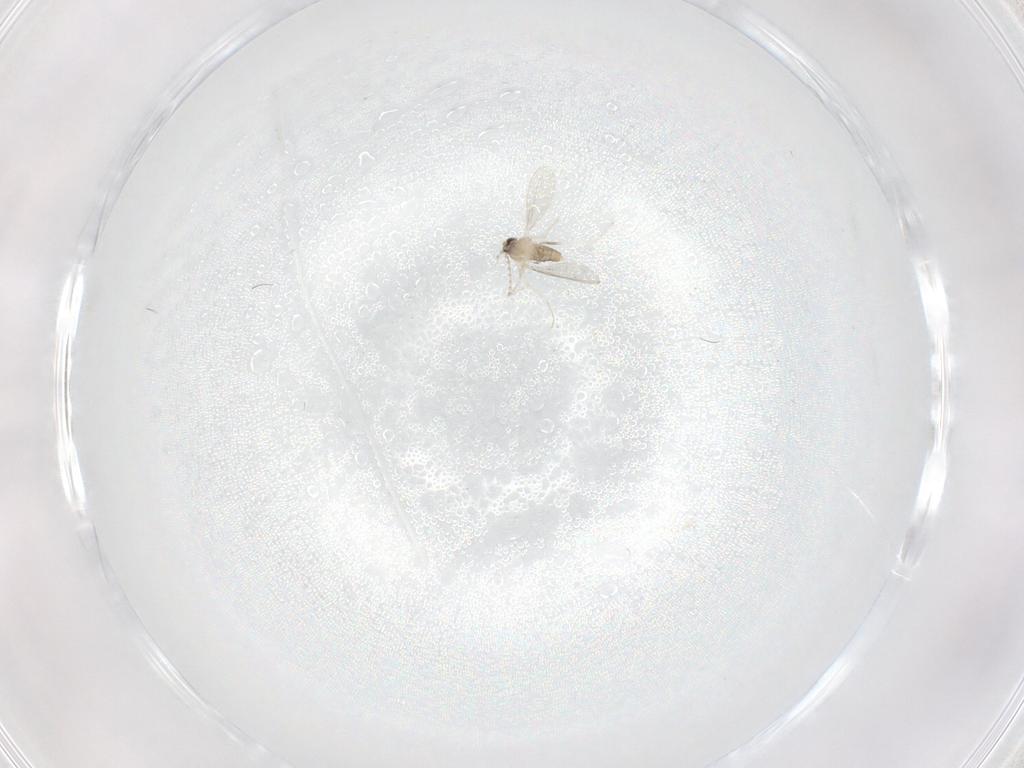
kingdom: Animalia
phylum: Arthropoda
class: Insecta
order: Diptera
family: Cecidomyiidae
